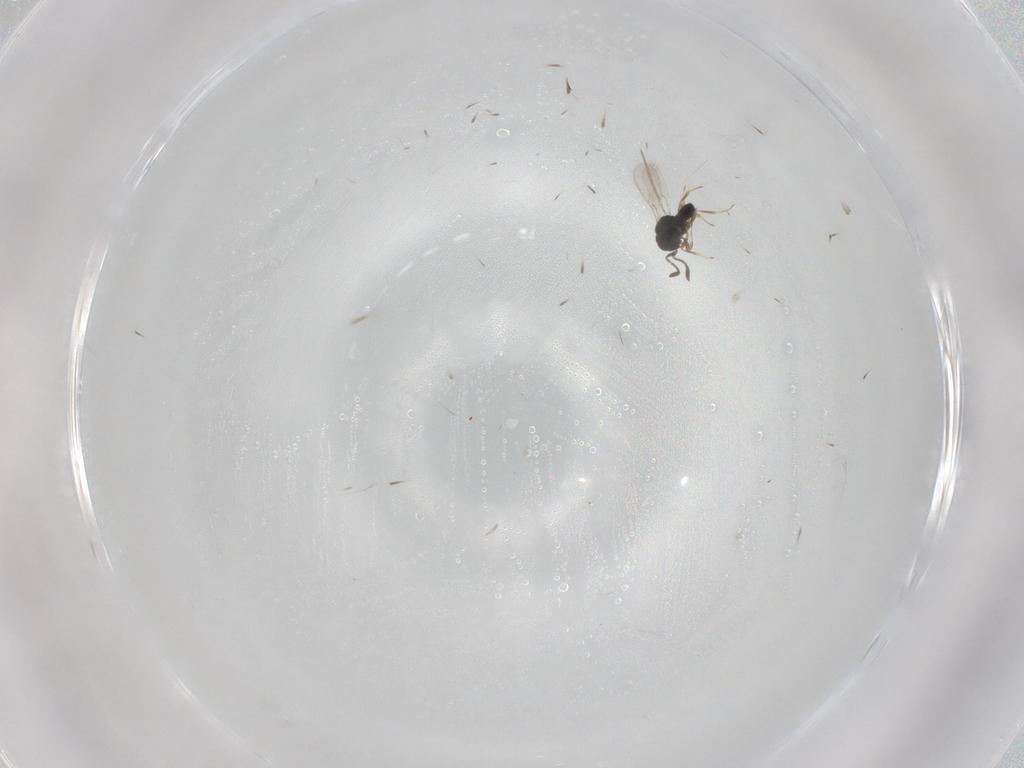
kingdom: Animalia
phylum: Arthropoda
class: Insecta
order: Hymenoptera
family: Scelionidae
